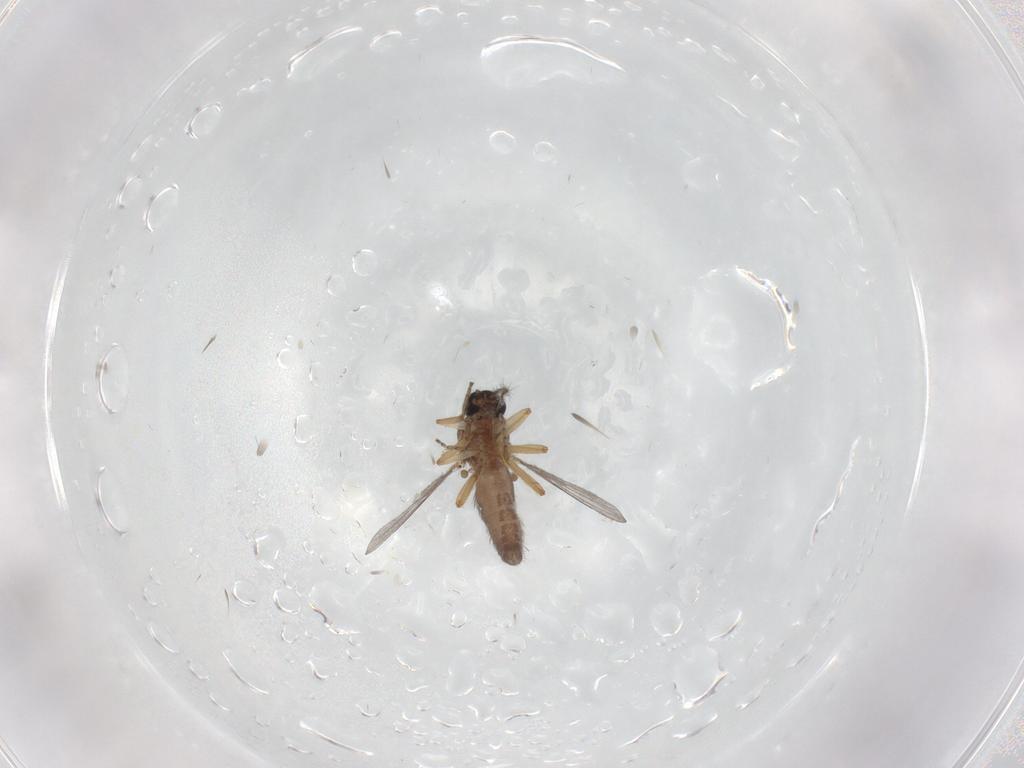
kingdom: Animalia
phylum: Arthropoda
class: Insecta
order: Diptera
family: Ceratopogonidae
